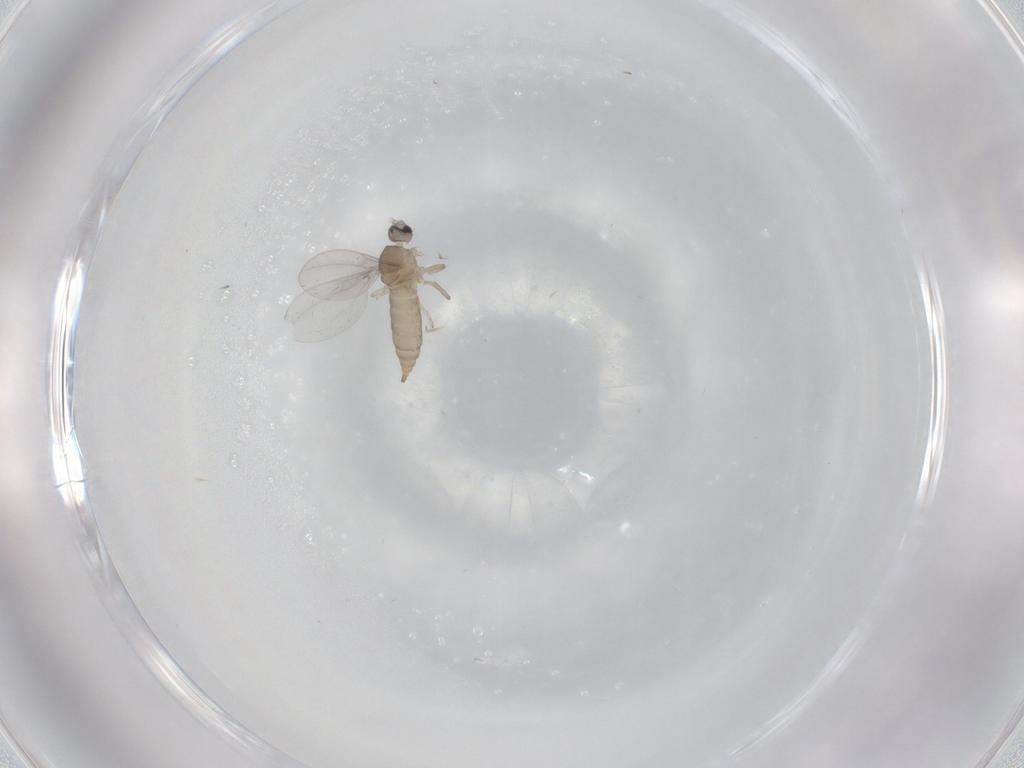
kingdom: Animalia
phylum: Arthropoda
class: Insecta
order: Diptera
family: Cecidomyiidae
